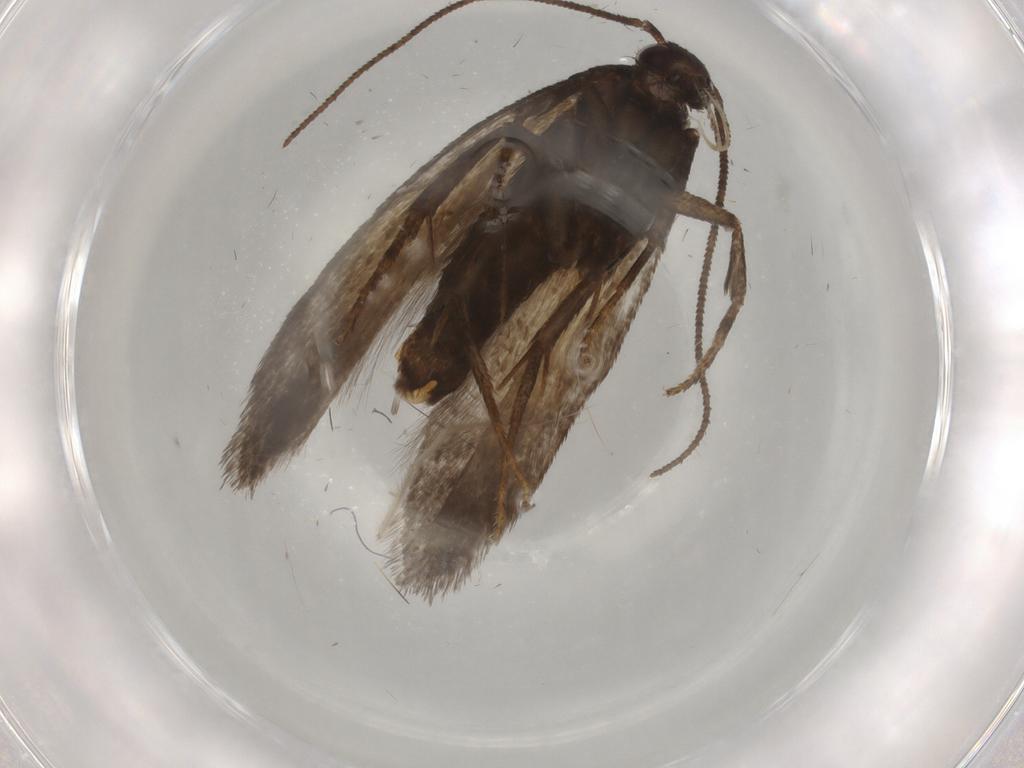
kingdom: Animalia
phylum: Arthropoda
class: Insecta
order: Lepidoptera
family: Gelechiidae
